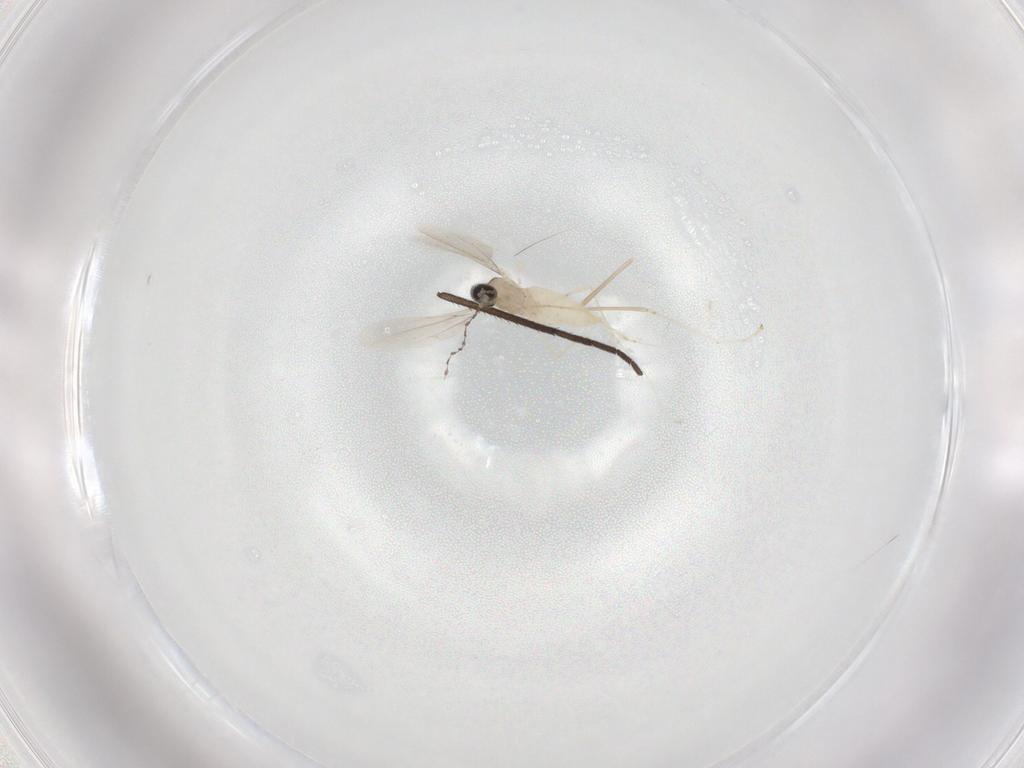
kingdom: Animalia
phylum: Arthropoda
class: Insecta
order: Diptera
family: Cecidomyiidae
